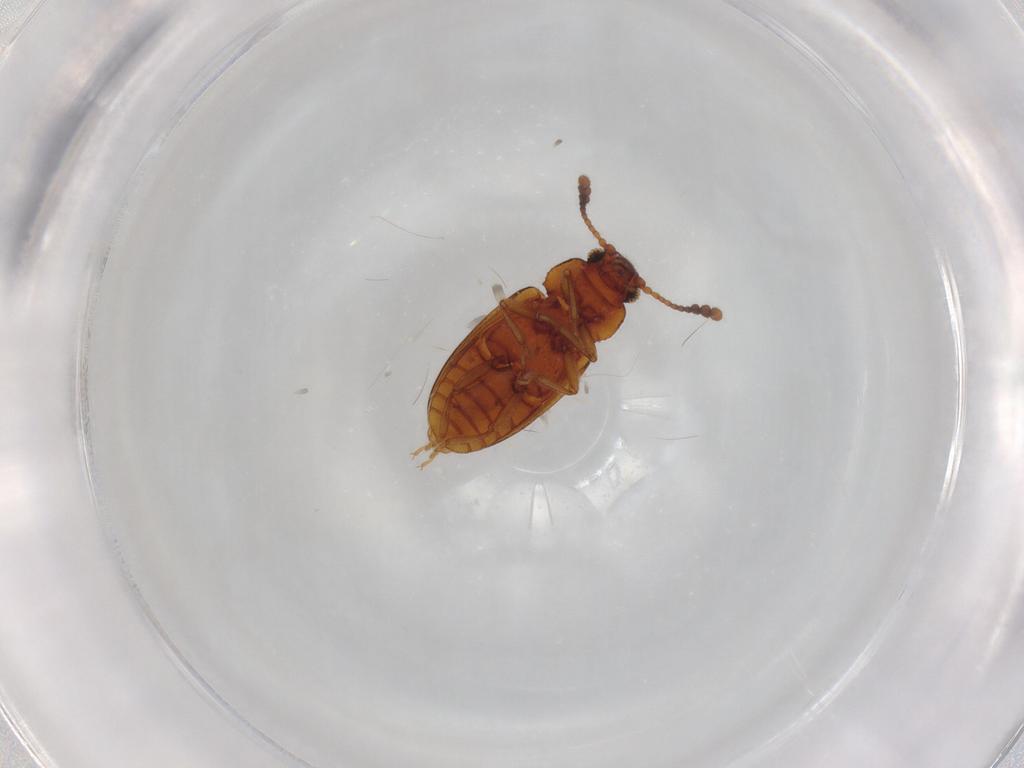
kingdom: Animalia
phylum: Arthropoda
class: Insecta
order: Coleoptera
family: Erotylidae
